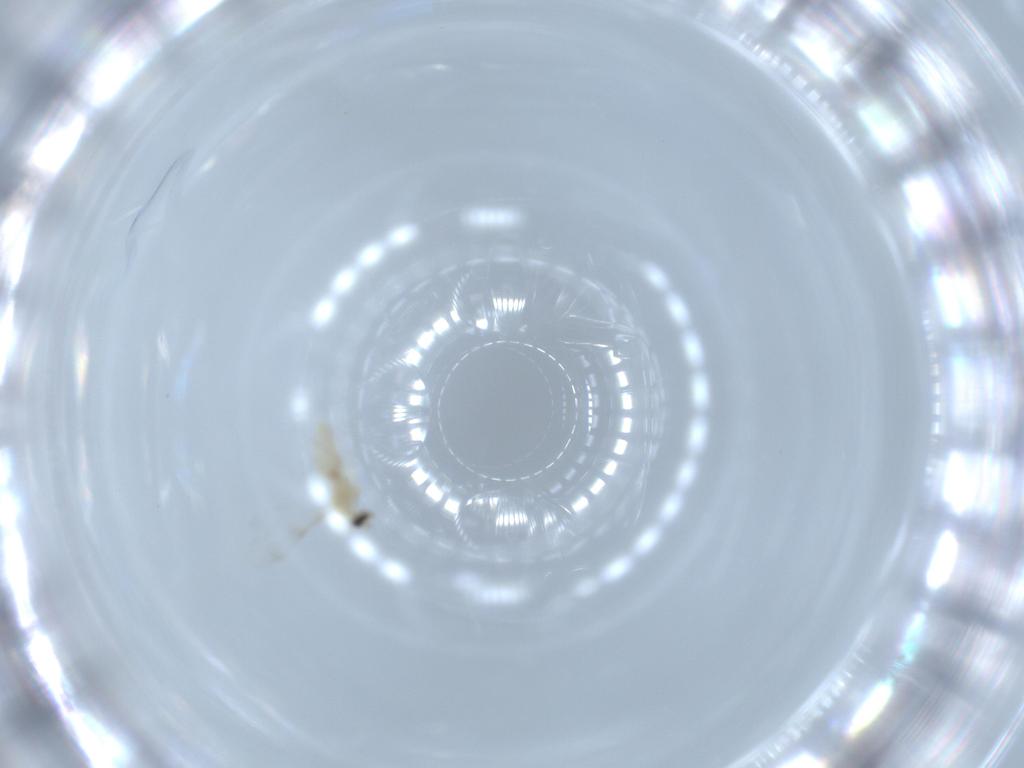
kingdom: Animalia
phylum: Arthropoda
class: Insecta
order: Diptera
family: Cecidomyiidae
